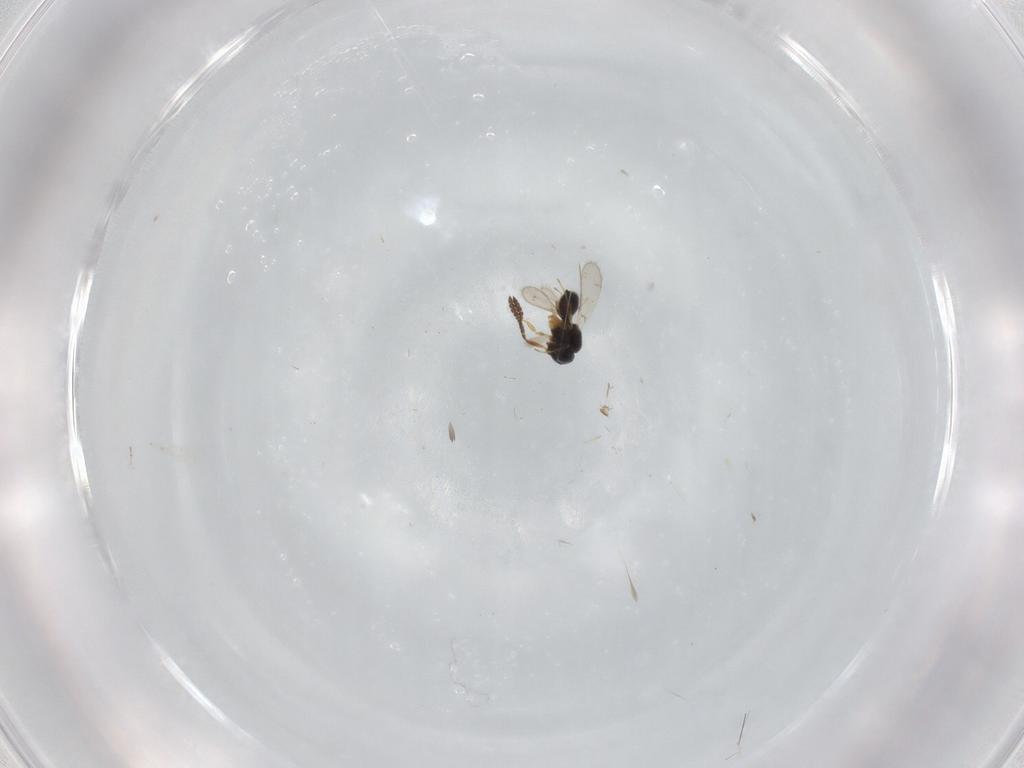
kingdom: Animalia
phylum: Arthropoda
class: Insecta
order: Hymenoptera
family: Scelionidae
